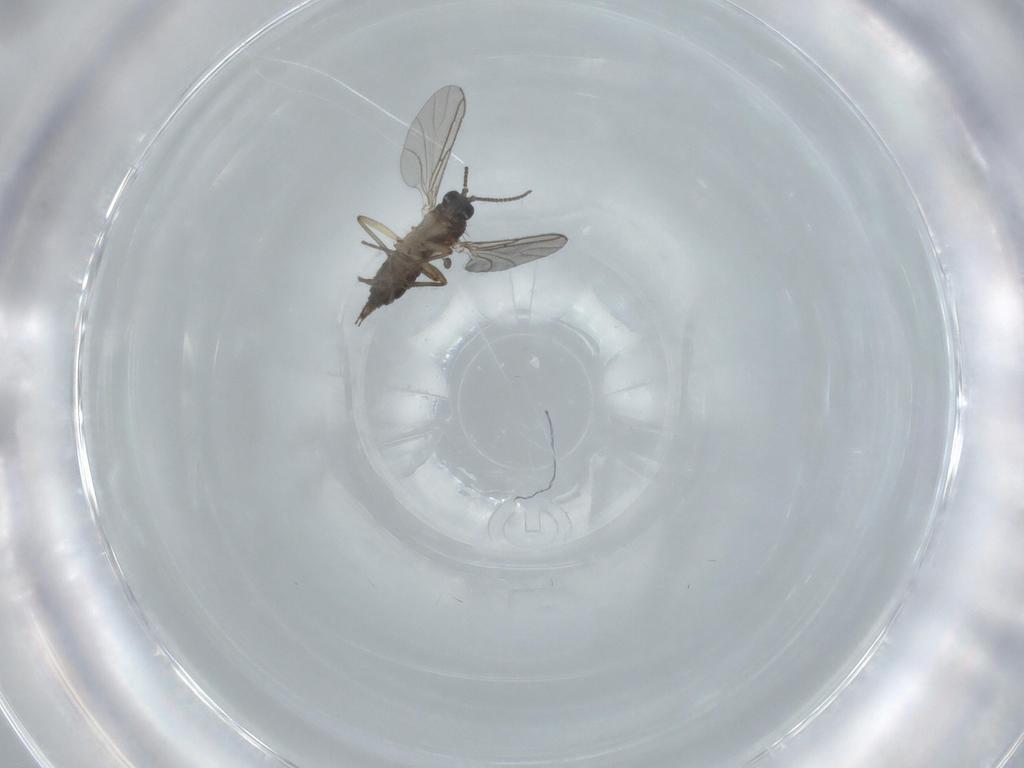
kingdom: Animalia
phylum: Arthropoda
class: Insecta
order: Diptera
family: Sciaridae
